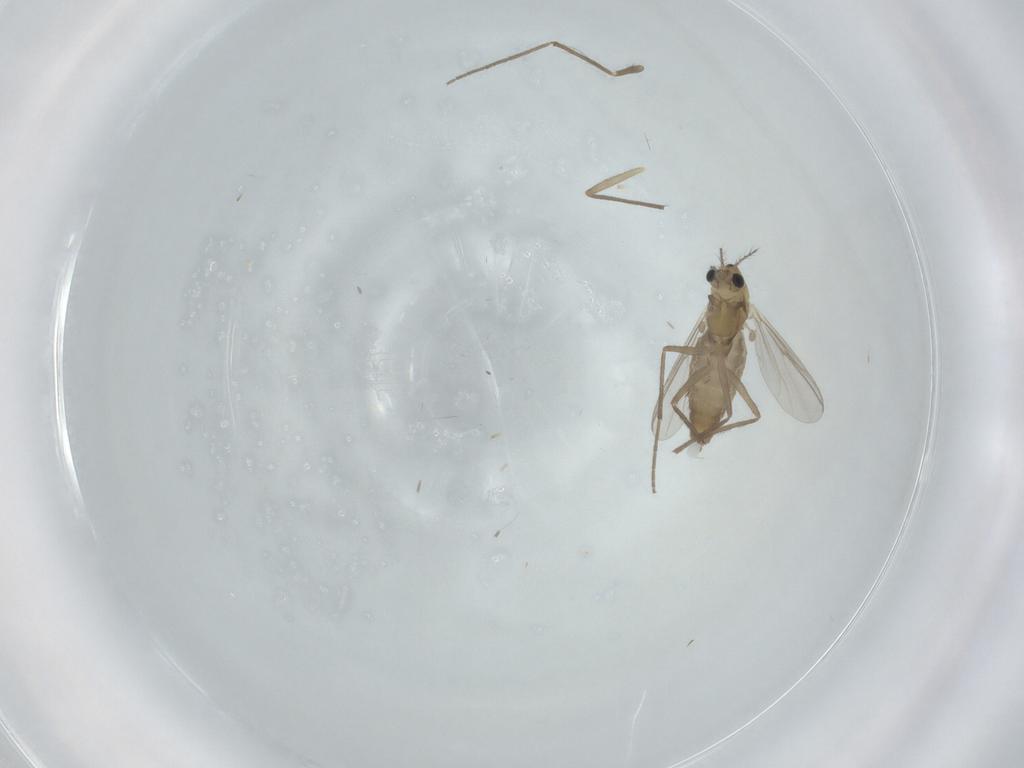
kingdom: Animalia
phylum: Arthropoda
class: Insecta
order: Diptera
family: Chironomidae
